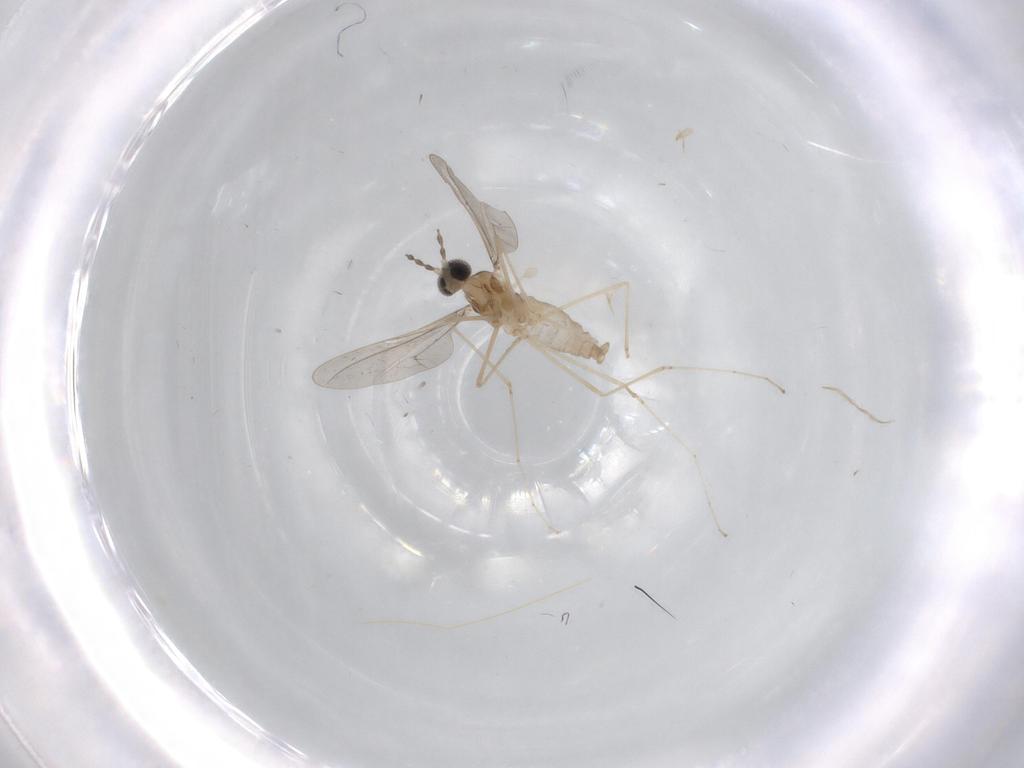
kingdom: Animalia
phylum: Arthropoda
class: Insecta
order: Diptera
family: Cecidomyiidae
